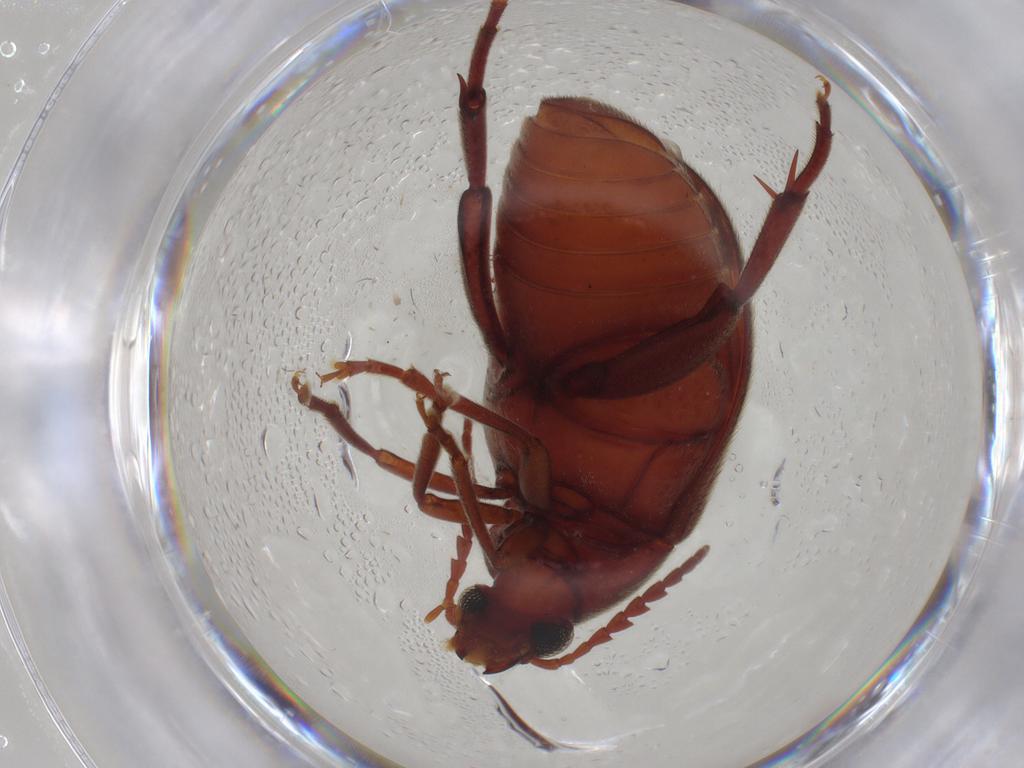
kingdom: Animalia
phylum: Arthropoda
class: Insecta
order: Coleoptera
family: Chrysomelidae
